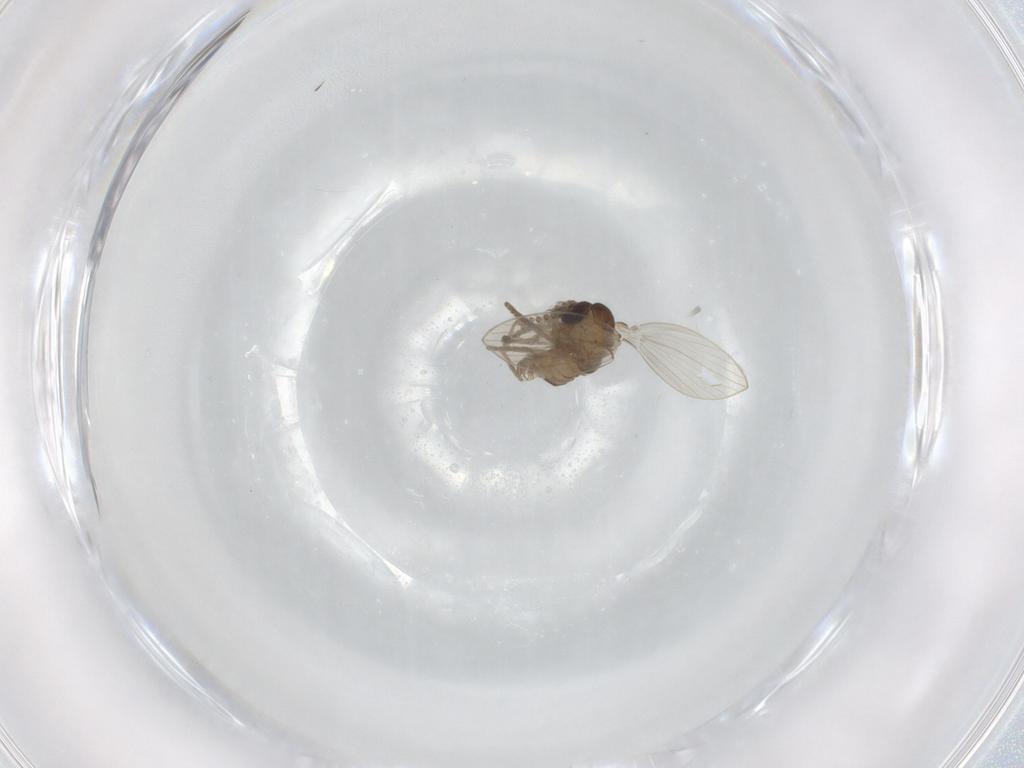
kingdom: Animalia
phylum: Arthropoda
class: Insecta
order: Diptera
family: Psychodidae
